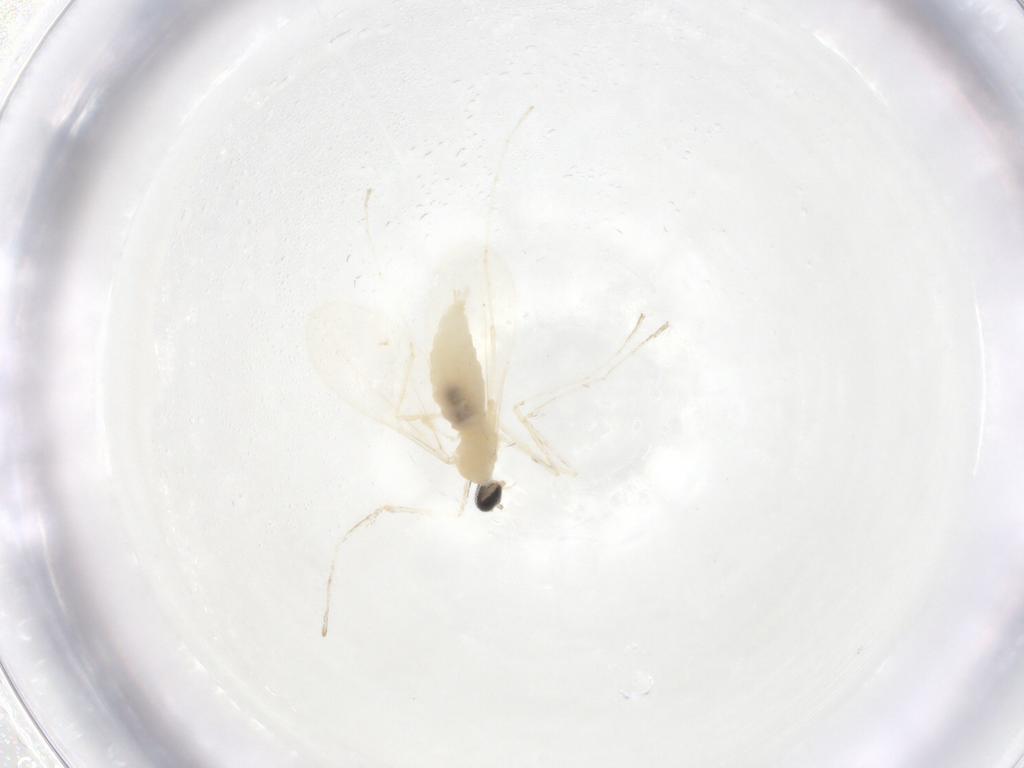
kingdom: Animalia
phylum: Arthropoda
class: Insecta
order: Diptera
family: Cecidomyiidae
